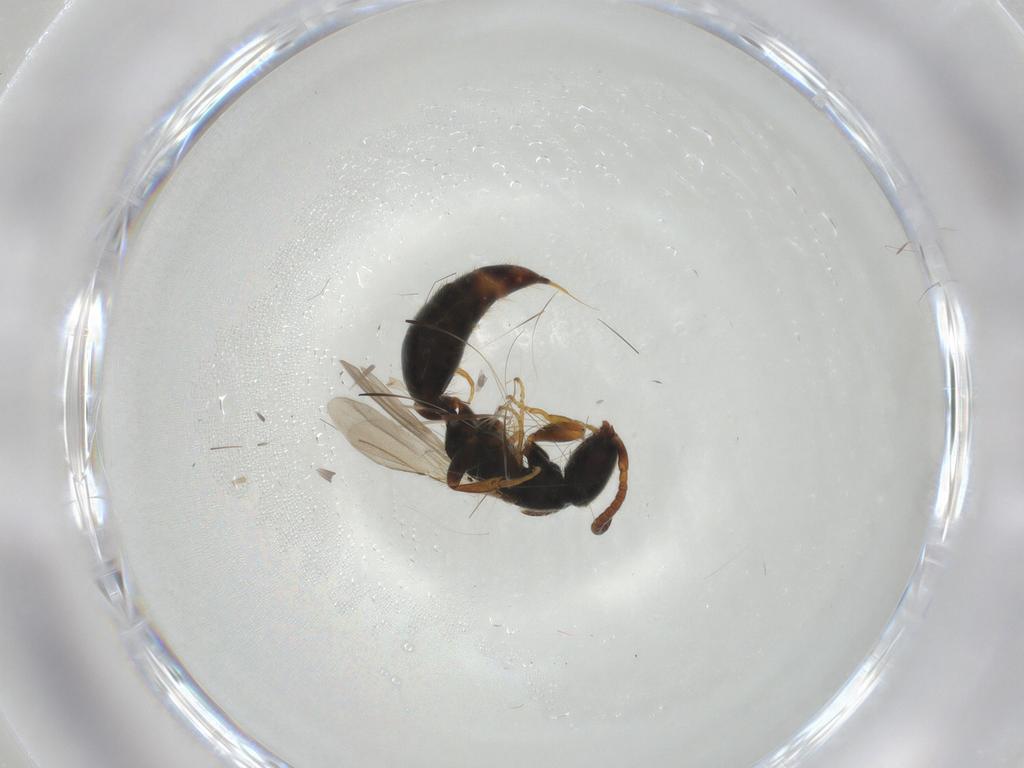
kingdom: Animalia
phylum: Arthropoda
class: Insecta
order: Hymenoptera
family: Bethylidae
